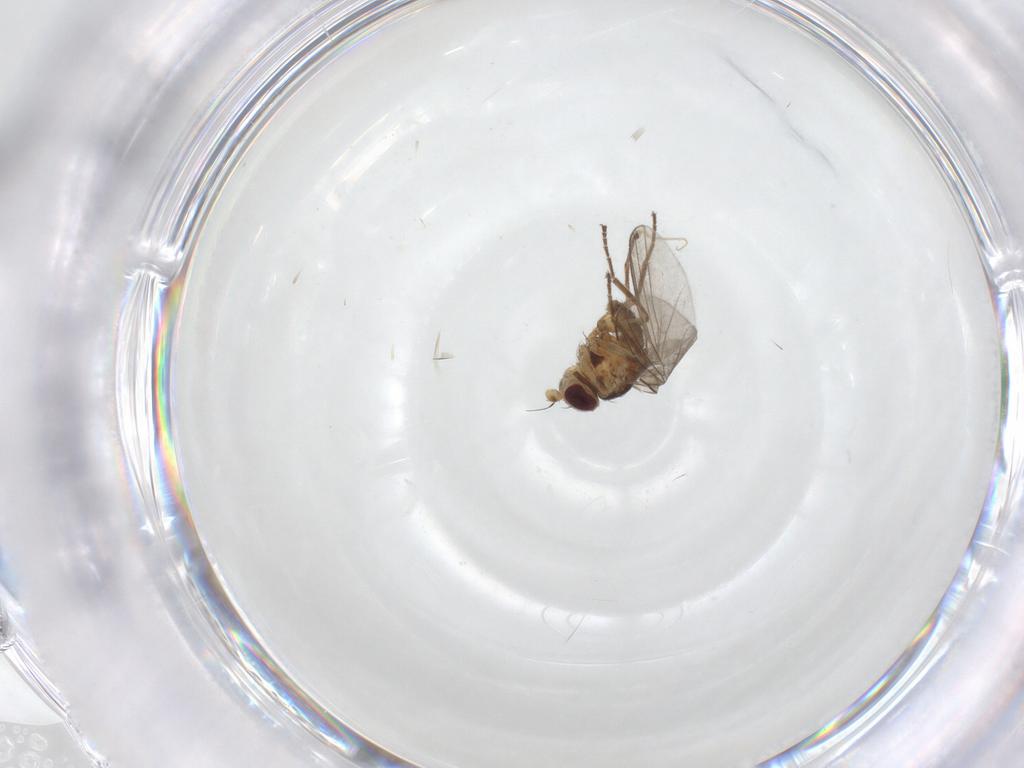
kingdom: Animalia
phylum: Arthropoda
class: Insecta
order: Diptera
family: Agromyzidae
